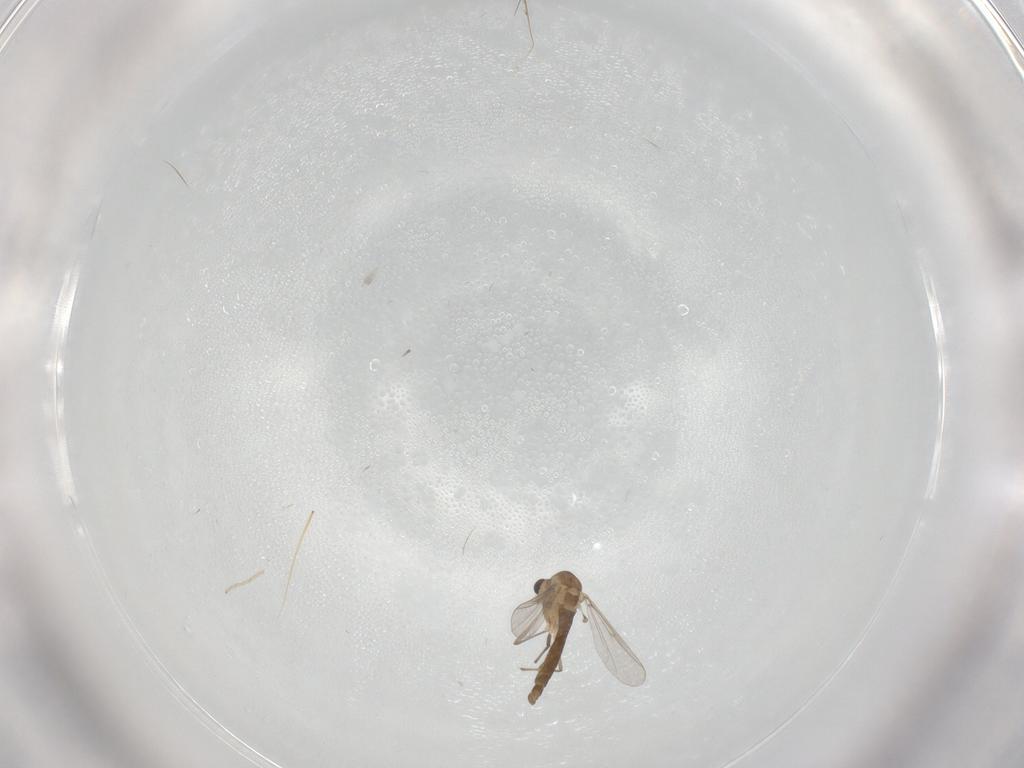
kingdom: Animalia
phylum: Arthropoda
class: Insecta
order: Diptera
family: Chironomidae
